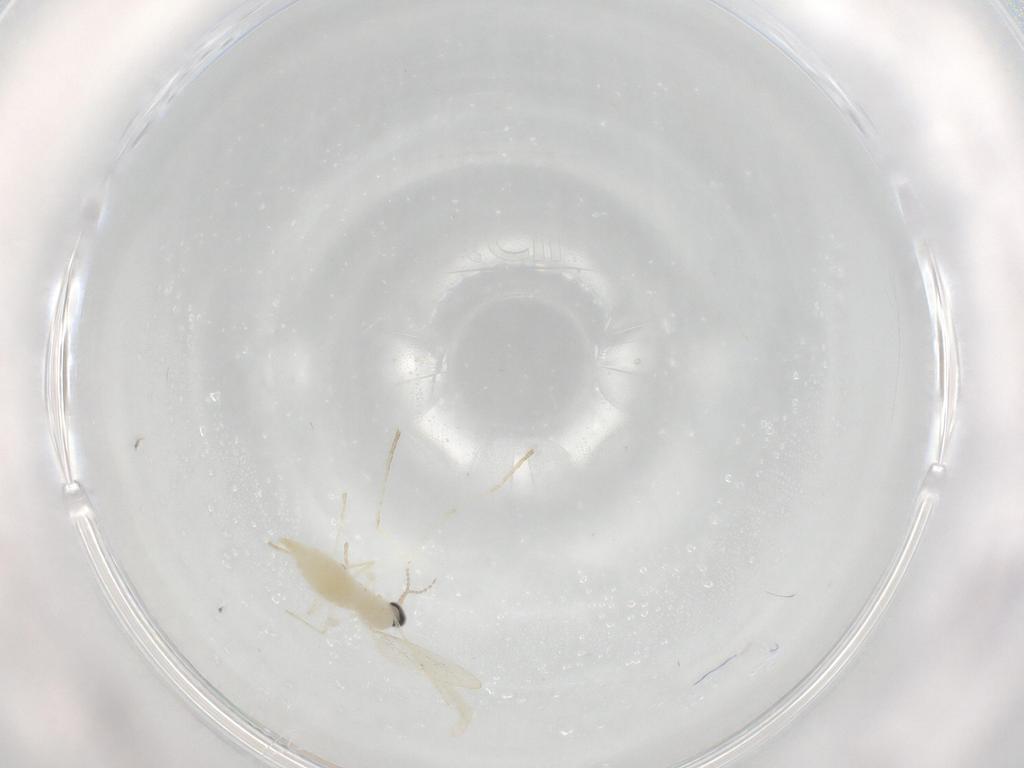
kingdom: Animalia
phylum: Arthropoda
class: Insecta
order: Diptera
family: Cecidomyiidae
